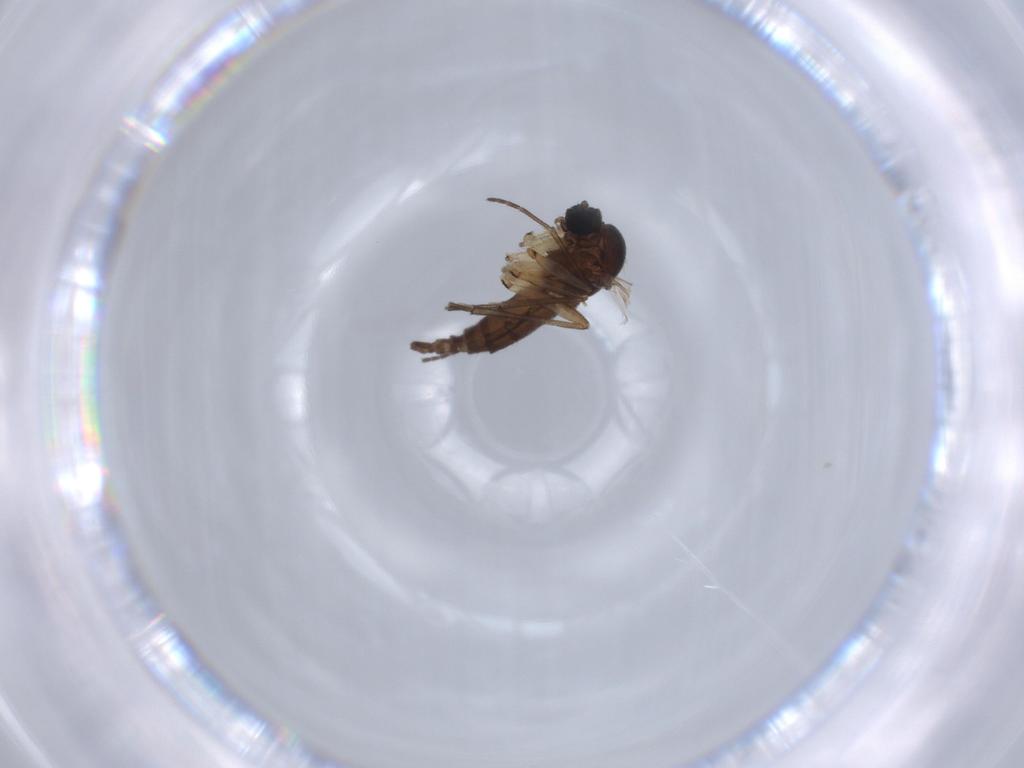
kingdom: Animalia
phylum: Arthropoda
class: Insecta
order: Diptera
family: Sciaridae
